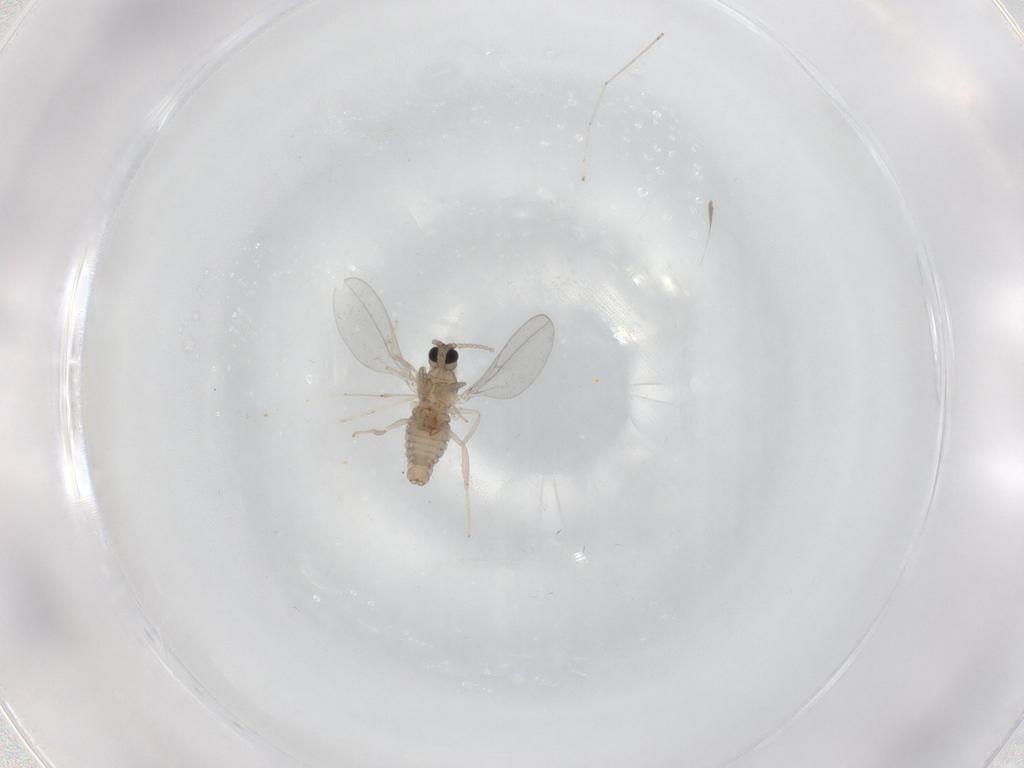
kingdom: Animalia
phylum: Arthropoda
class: Insecta
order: Diptera
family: Cecidomyiidae
